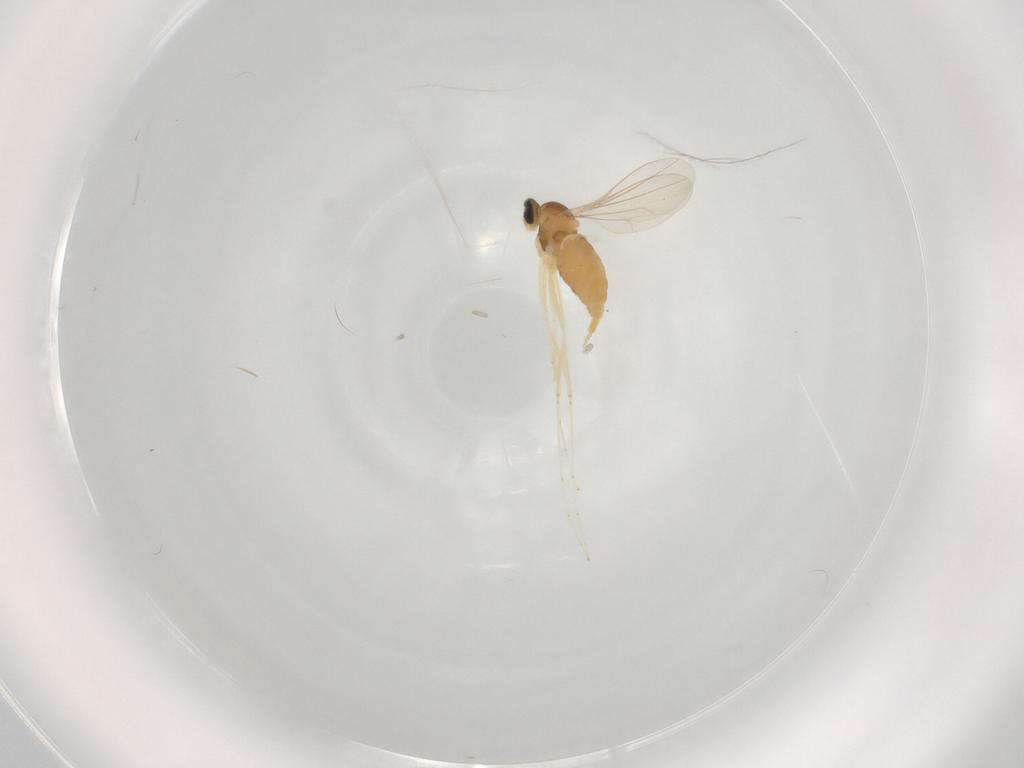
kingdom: Animalia
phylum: Arthropoda
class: Insecta
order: Diptera
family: Cecidomyiidae
